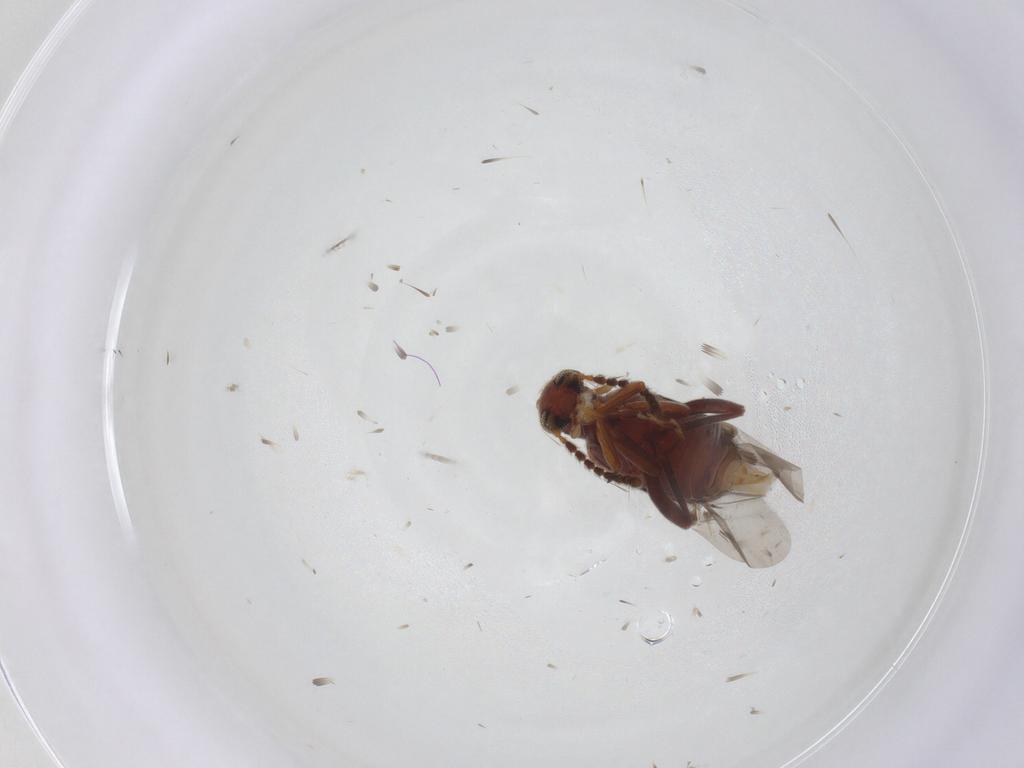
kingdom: Animalia
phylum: Arthropoda
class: Insecta
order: Coleoptera
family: Aderidae
